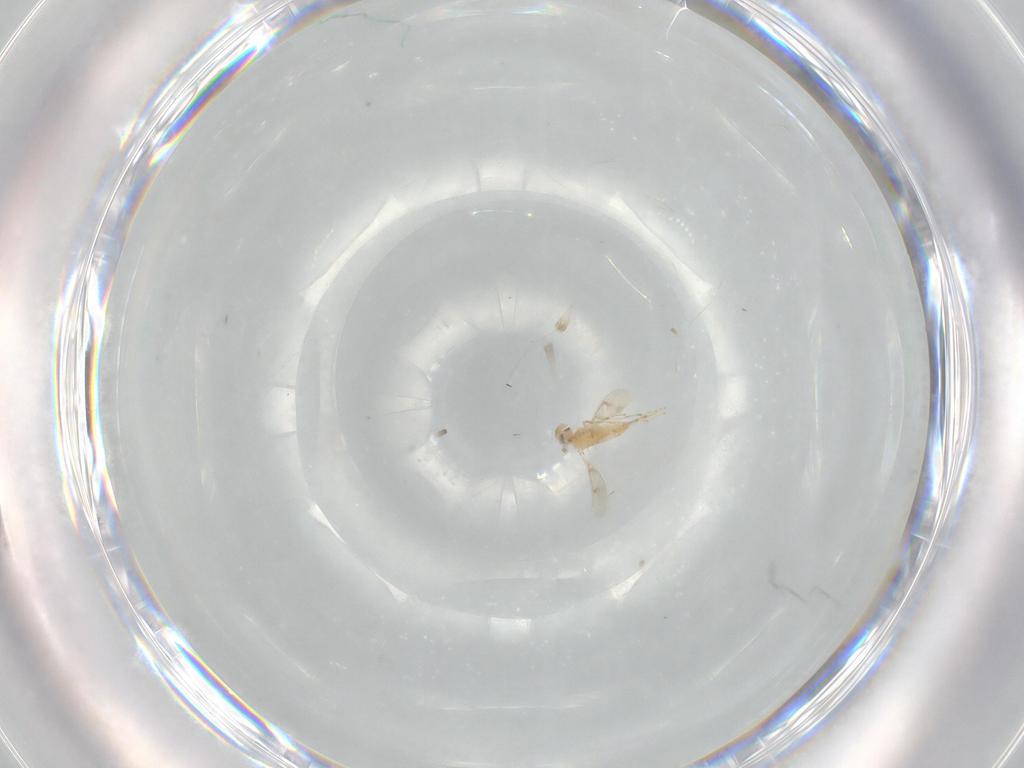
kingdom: Animalia
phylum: Arthropoda
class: Insecta
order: Hymenoptera
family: Aphelinidae
